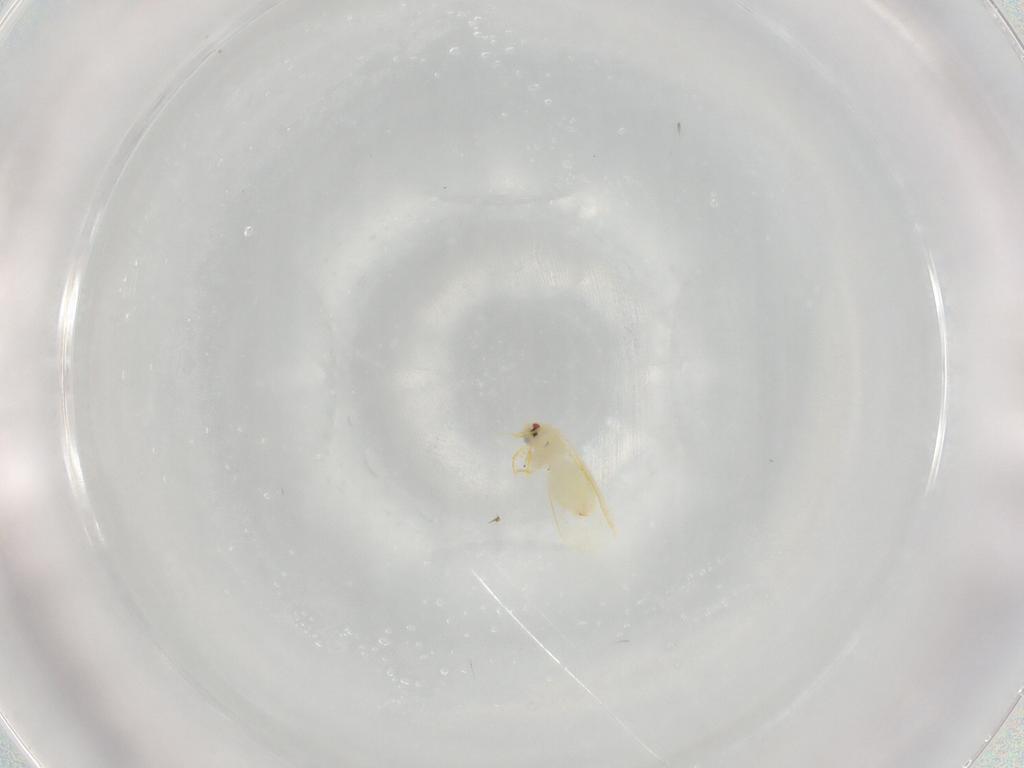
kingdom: Animalia
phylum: Arthropoda
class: Insecta
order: Hemiptera
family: Aleyrodidae
